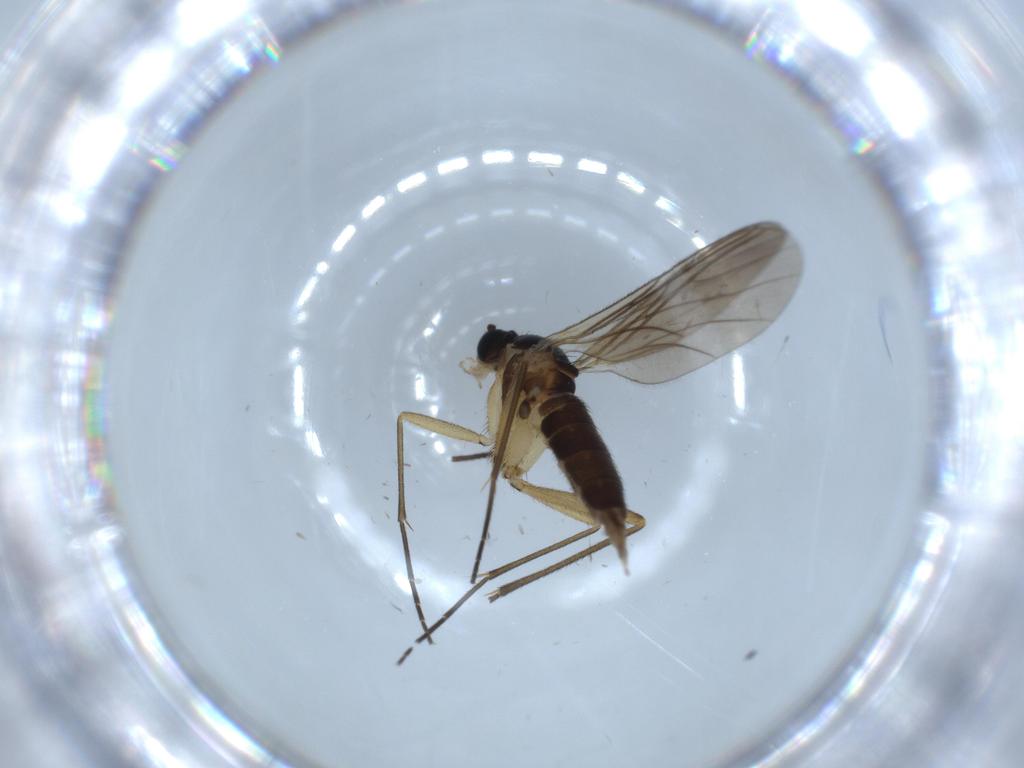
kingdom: Animalia
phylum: Arthropoda
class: Insecta
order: Diptera
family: Sciaridae
